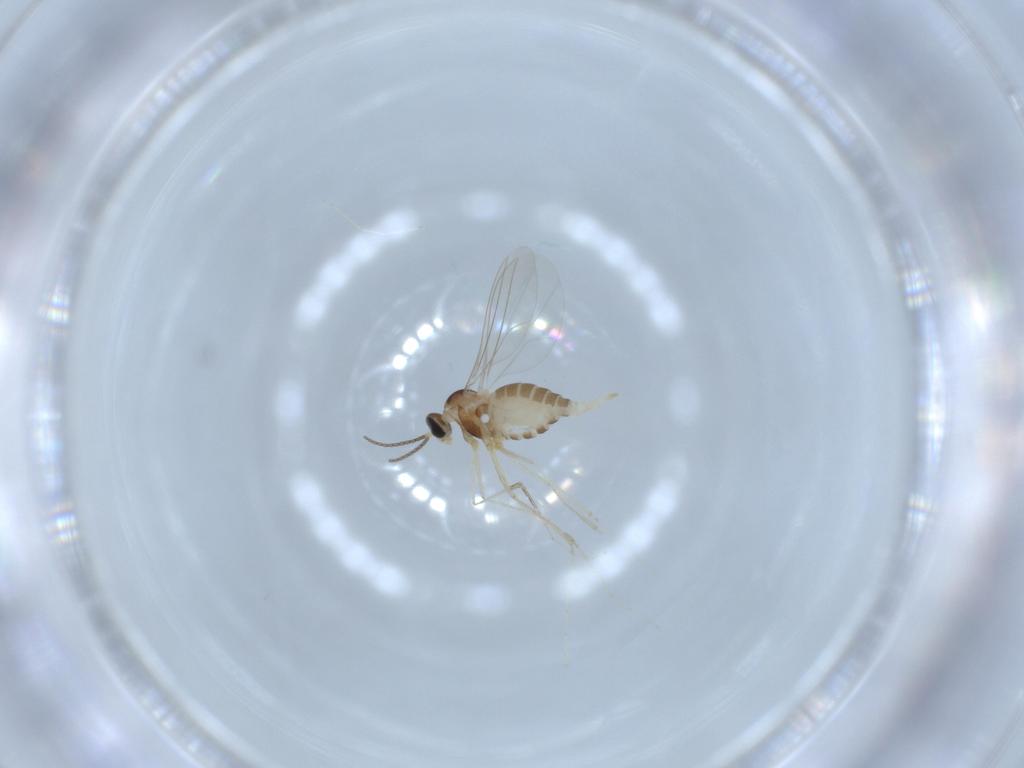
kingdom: Animalia
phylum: Arthropoda
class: Insecta
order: Diptera
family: Cecidomyiidae
